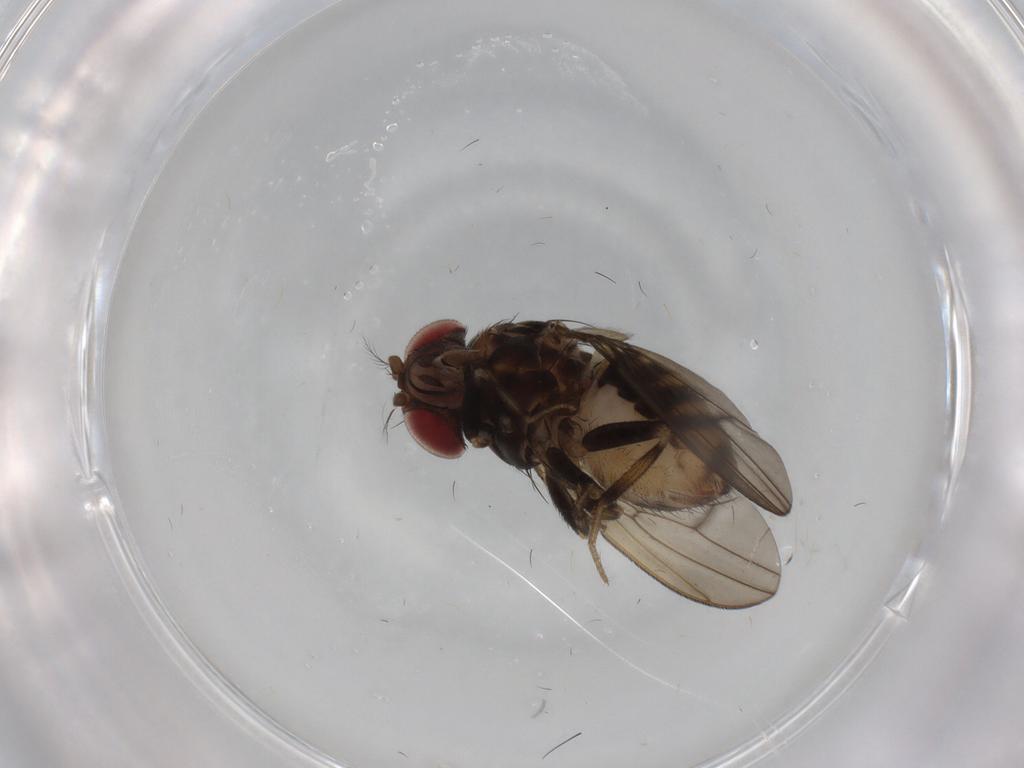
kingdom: Animalia
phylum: Arthropoda
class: Insecta
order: Diptera
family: Drosophilidae
